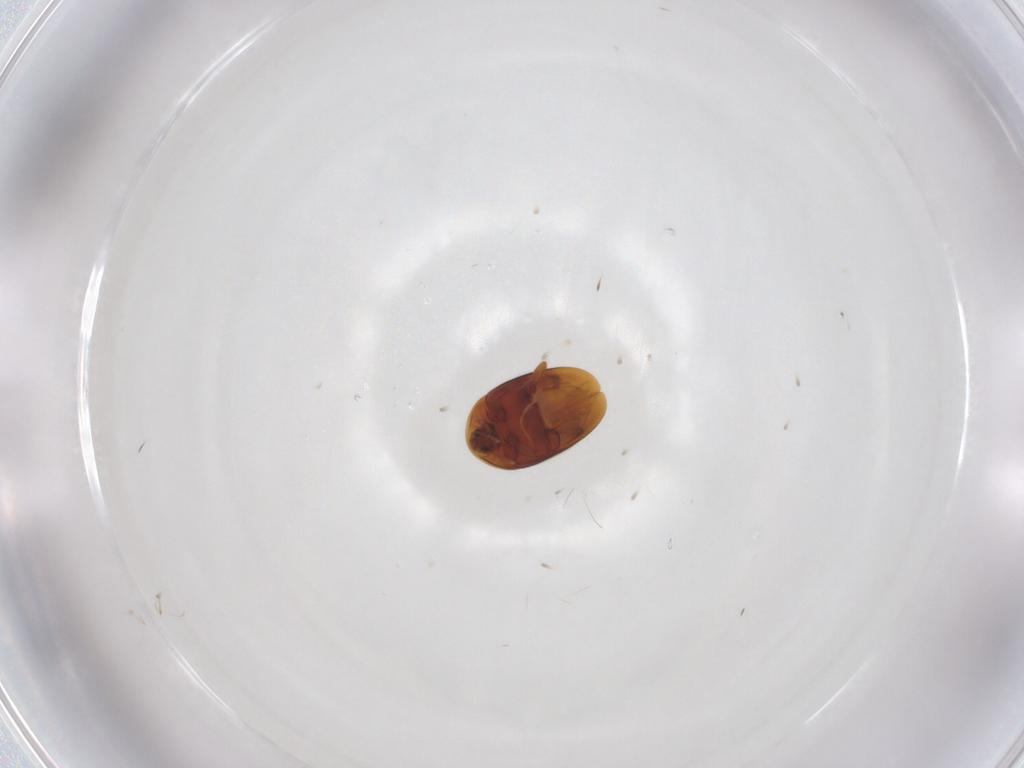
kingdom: Animalia
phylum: Arthropoda
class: Insecta
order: Coleoptera
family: Corylophidae
